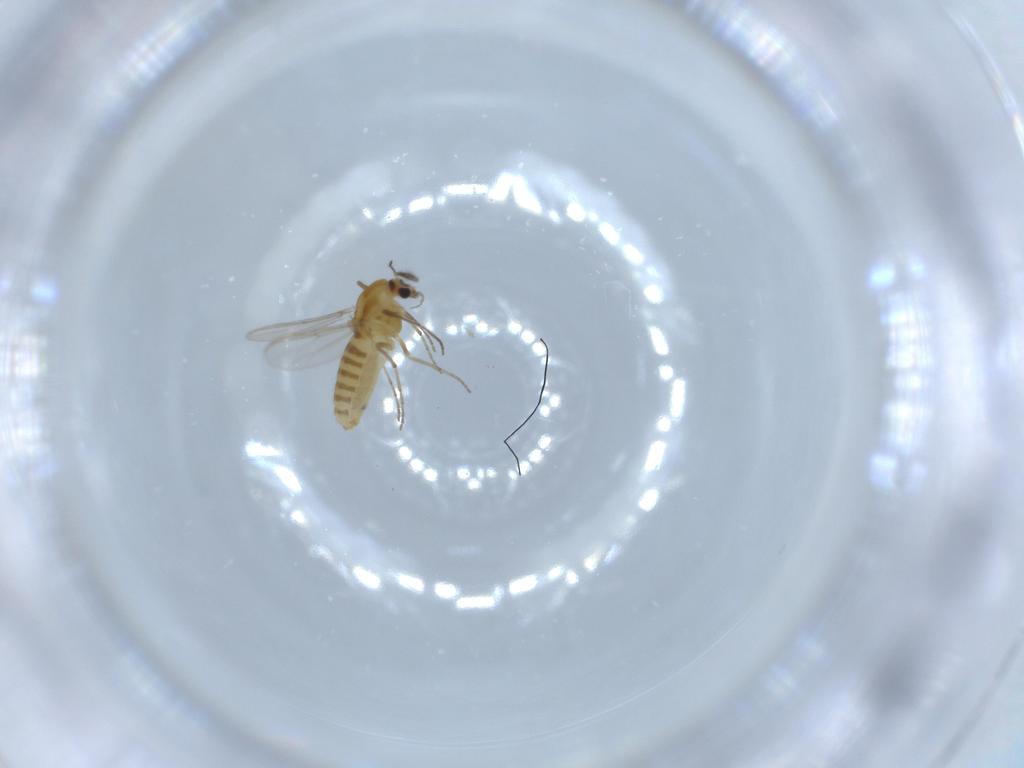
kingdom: Animalia
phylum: Arthropoda
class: Insecta
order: Diptera
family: Chironomidae
